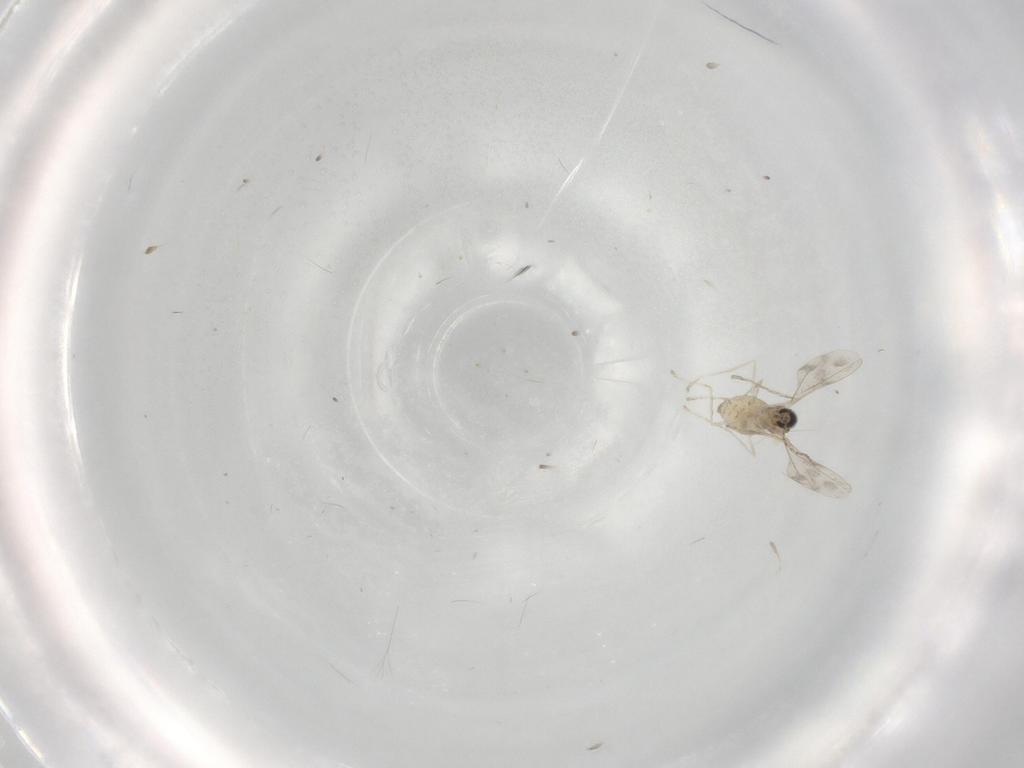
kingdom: Animalia
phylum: Arthropoda
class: Insecta
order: Diptera
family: Cecidomyiidae
